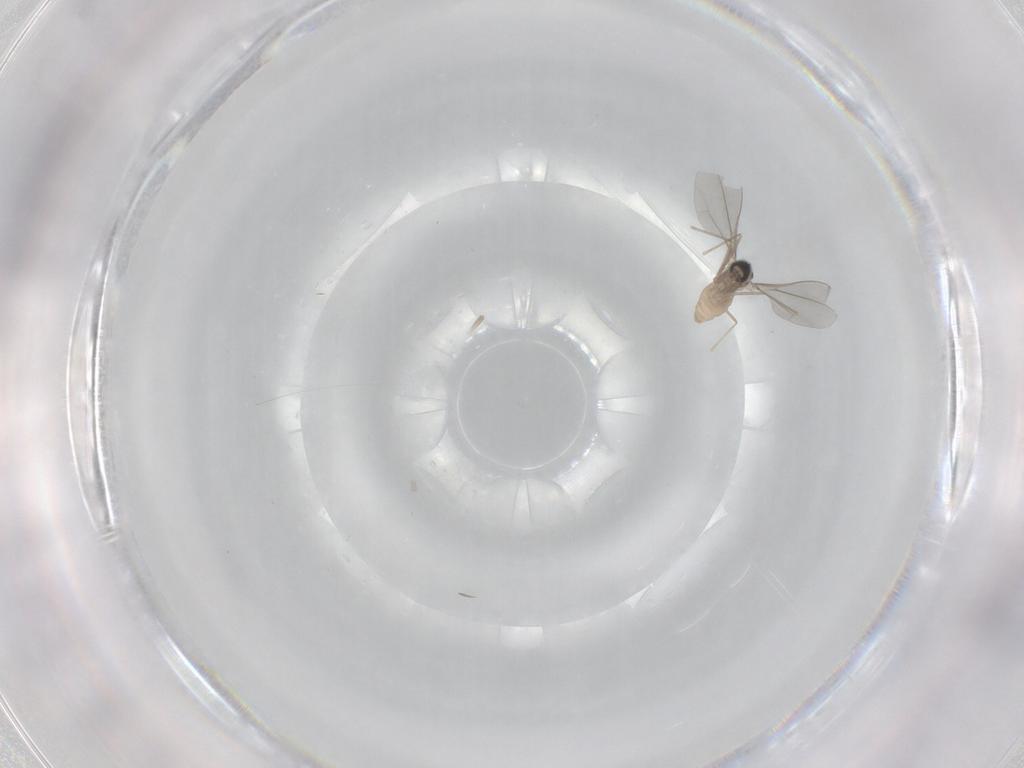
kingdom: Animalia
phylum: Arthropoda
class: Insecta
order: Diptera
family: Cecidomyiidae
